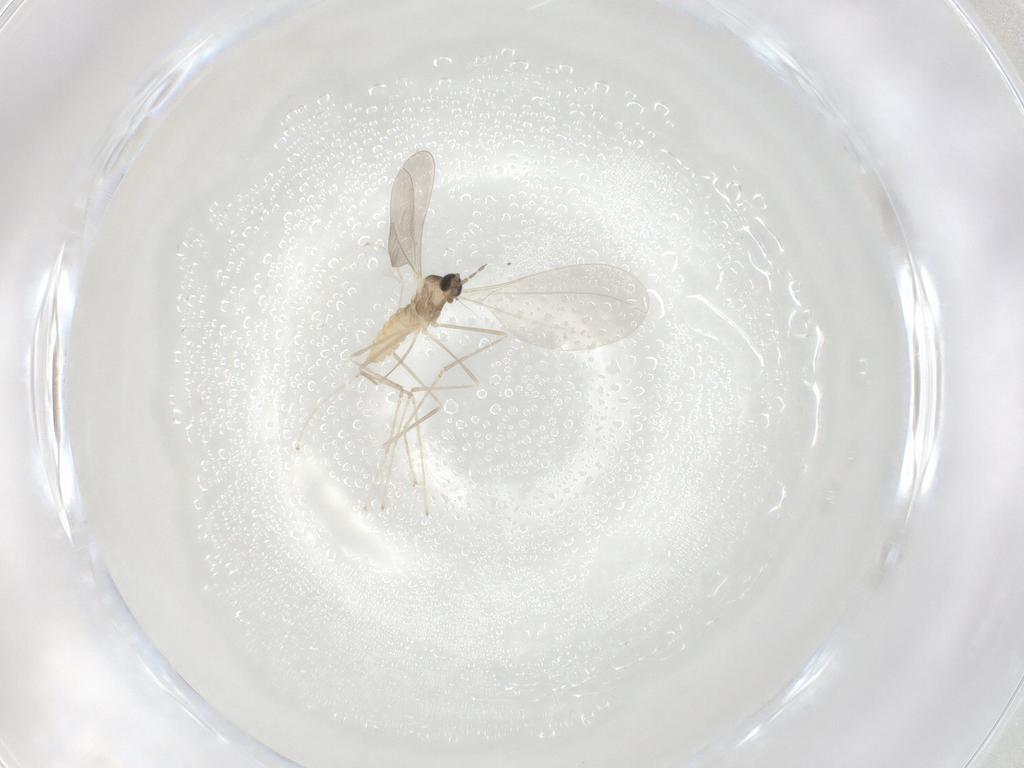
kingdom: Animalia
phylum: Arthropoda
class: Insecta
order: Diptera
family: Cecidomyiidae
